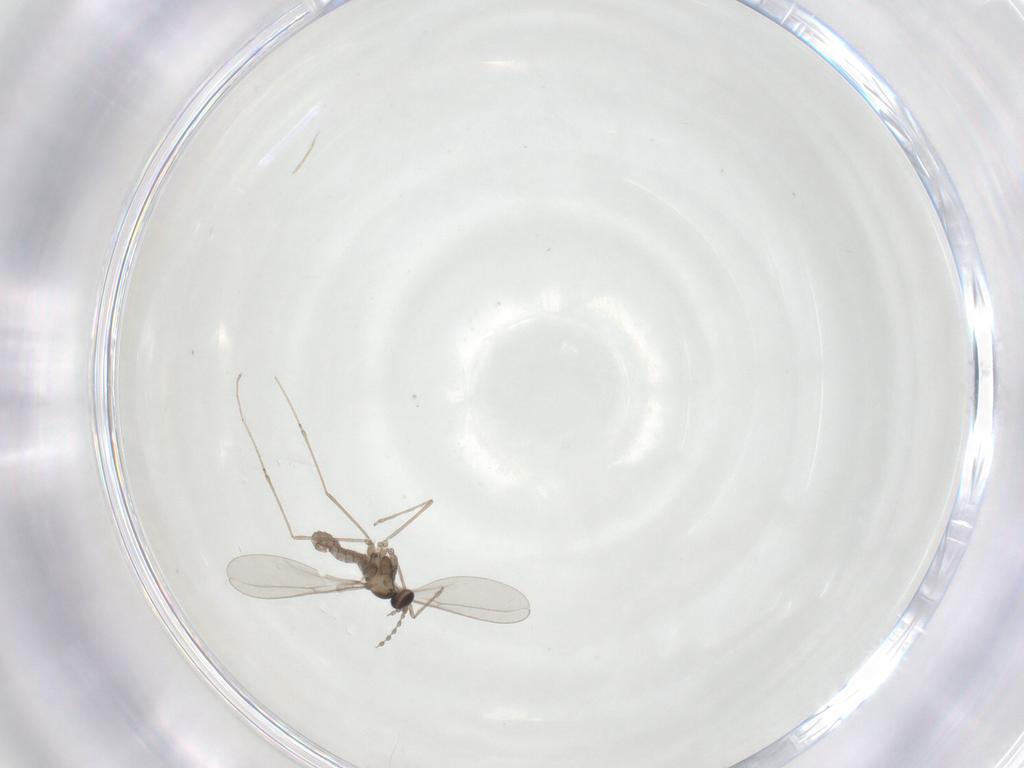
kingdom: Animalia
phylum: Arthropoda
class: Insecta
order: Diptera
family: Cecidomyiidae
